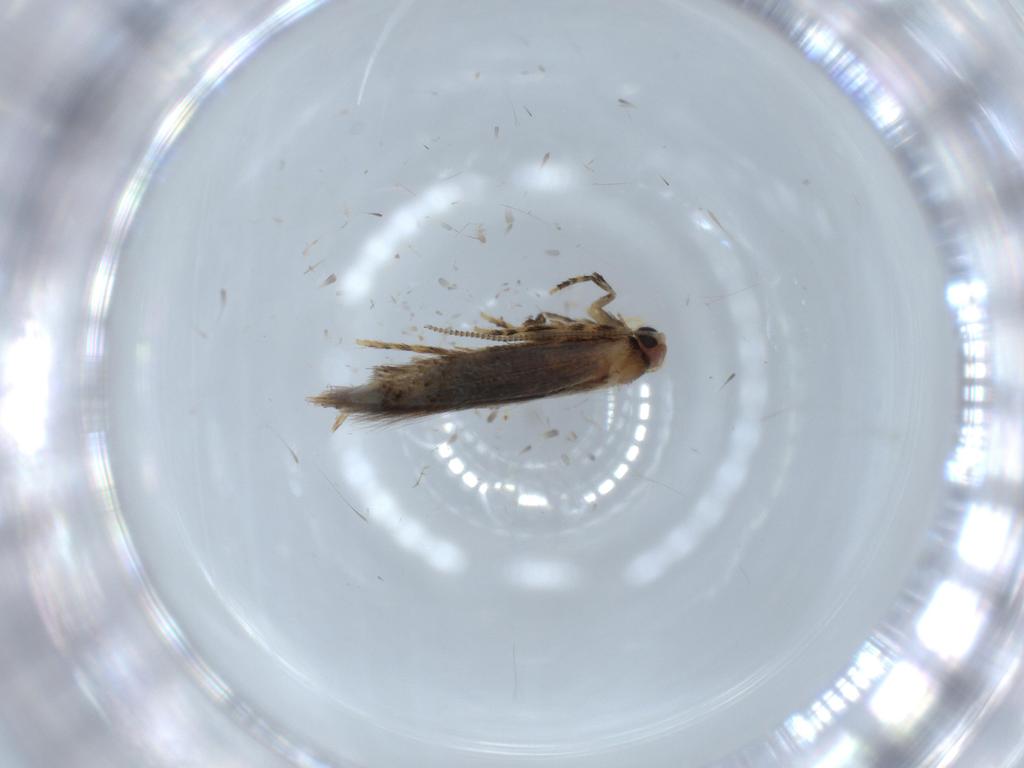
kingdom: Animalia
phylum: Arthropoda
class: Insecta
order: Lepidoptera
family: Tineidae
